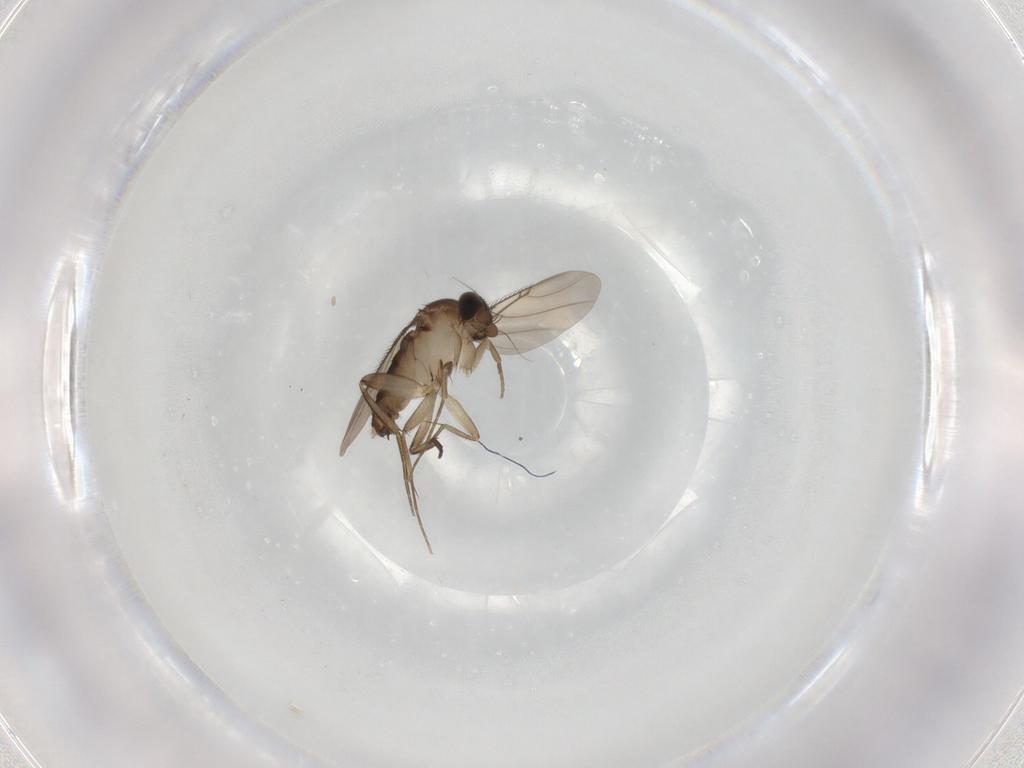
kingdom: Animalia
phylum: Arthropoda
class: Insecta
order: Diptera
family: Phoridae
